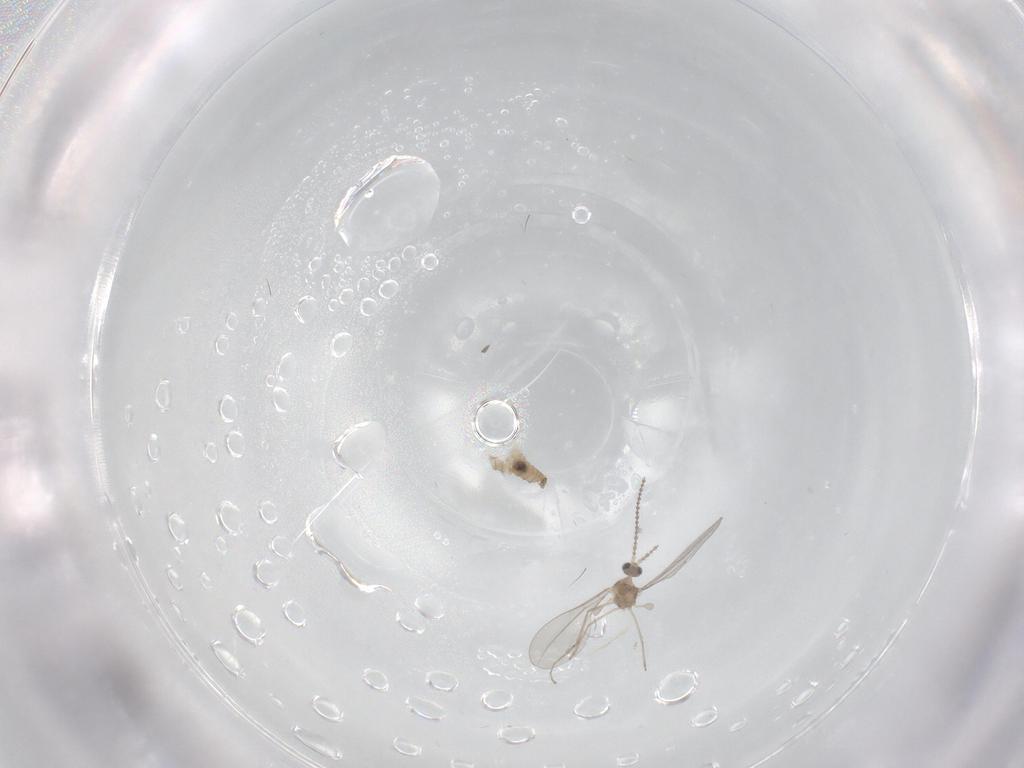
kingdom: Animalia
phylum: Arthropoda
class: Insecta
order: Diptera
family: Cecidomyiidae
